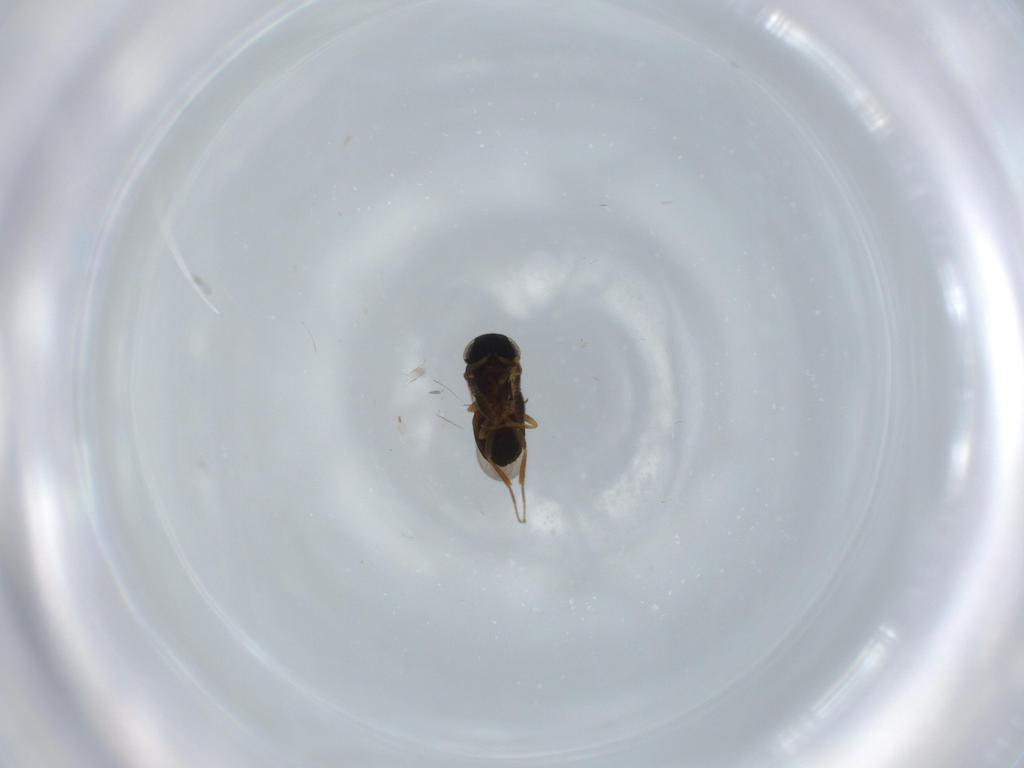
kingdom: Animalia
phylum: Arthropoda
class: Insecta
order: Hymenoptera
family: Scelionidae
